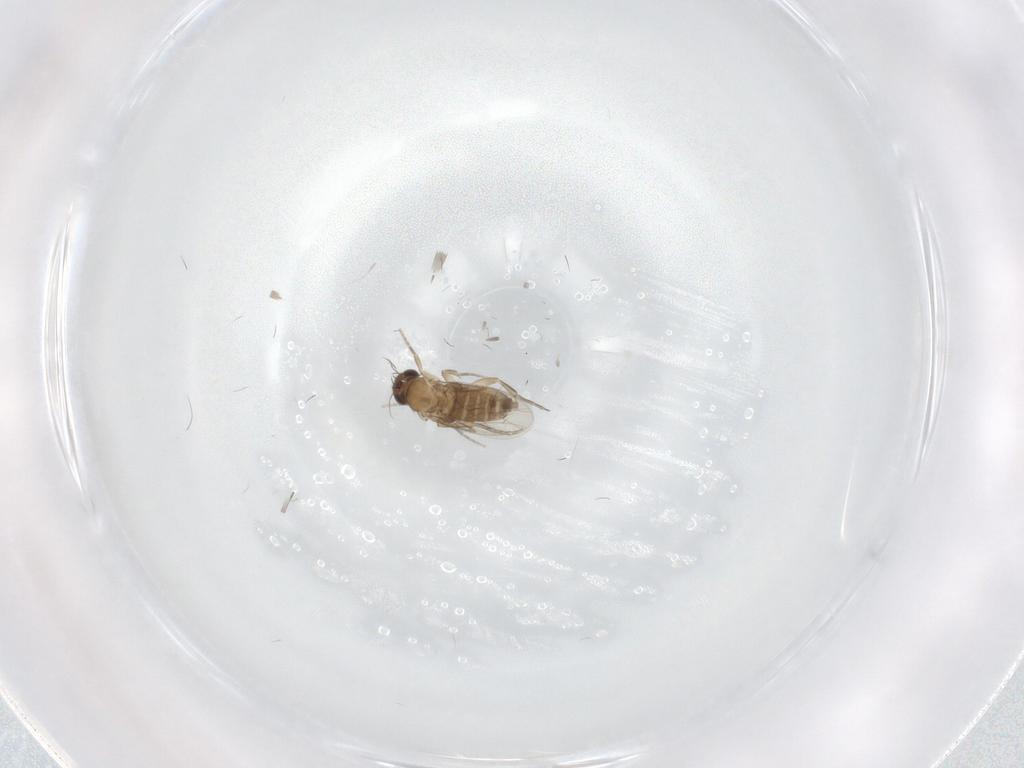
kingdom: Animalia
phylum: Arthropoda
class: Insecta
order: Diptera
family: Phoridae
